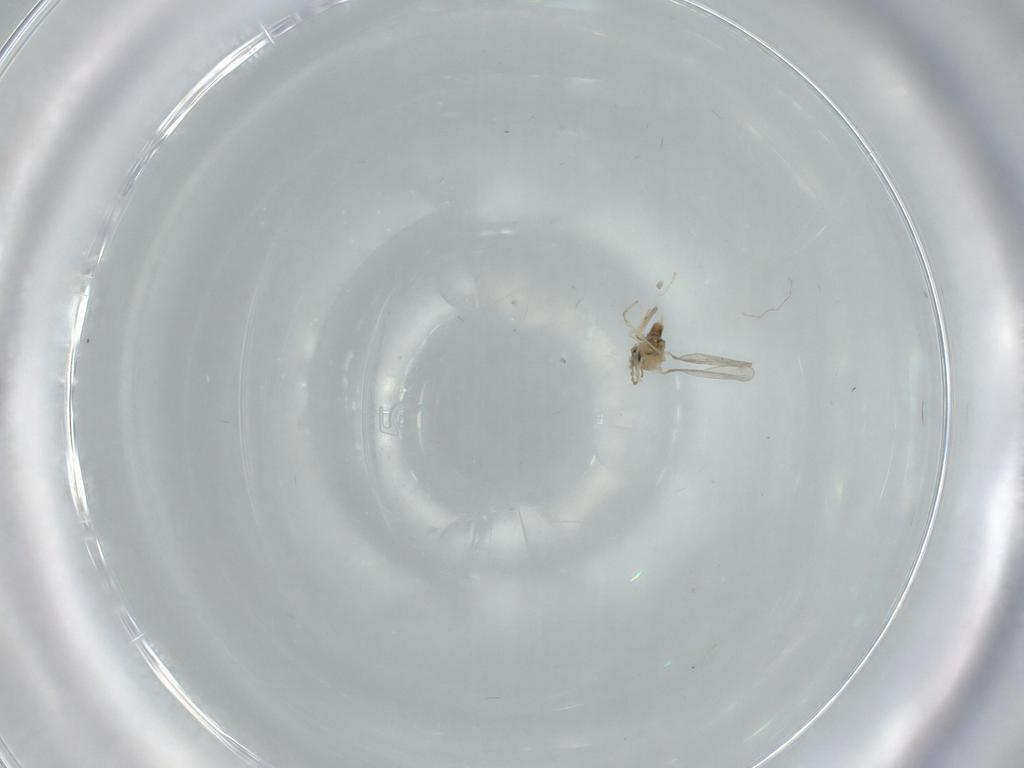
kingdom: Animalia
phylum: Arthropoda
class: Insecta
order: Diptera
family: Cecidomyiidae
